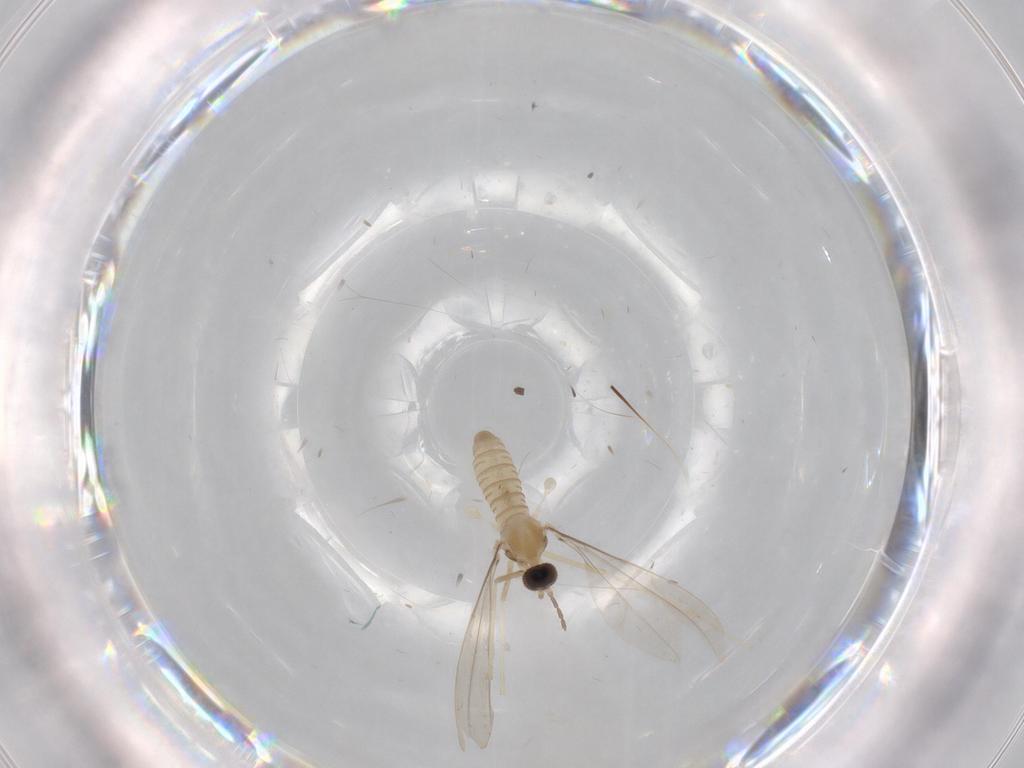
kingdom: Animalia
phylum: Arthropoda
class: Insecta
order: Diptera
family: Cecidomyiidae
